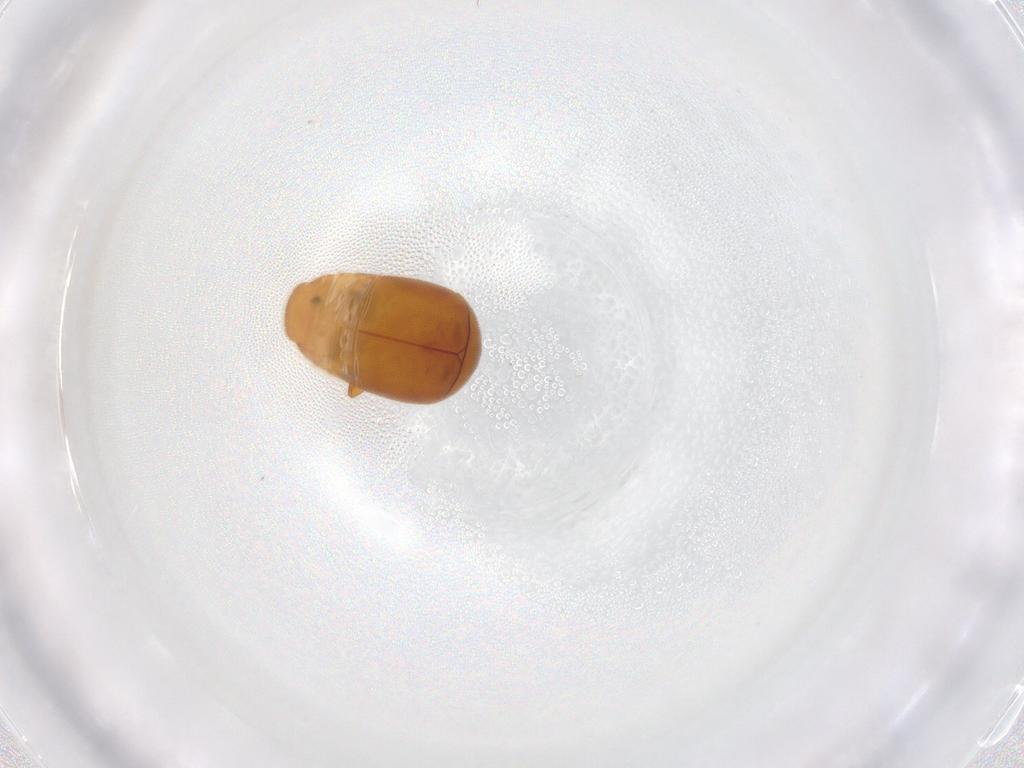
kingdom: Animalia
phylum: Arthropoda
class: Insecta
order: Coleoptera
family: Corylophidae
